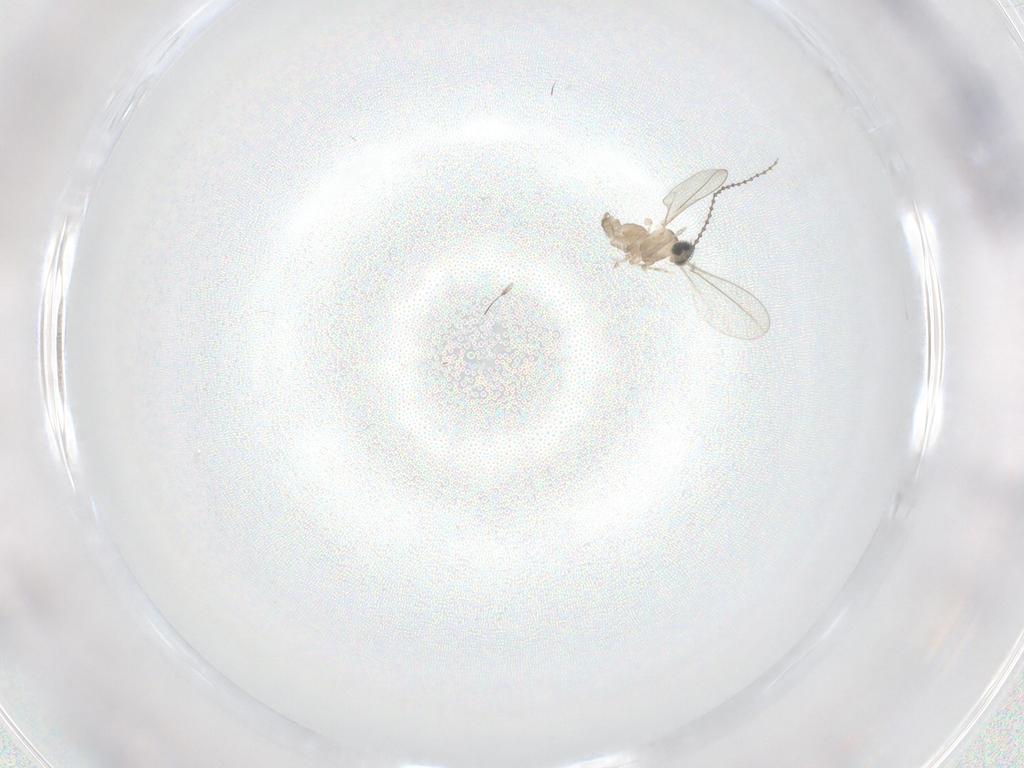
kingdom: Animalia
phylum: Arthropoda
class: Insecta
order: Diptera
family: Cecidomyiidae
